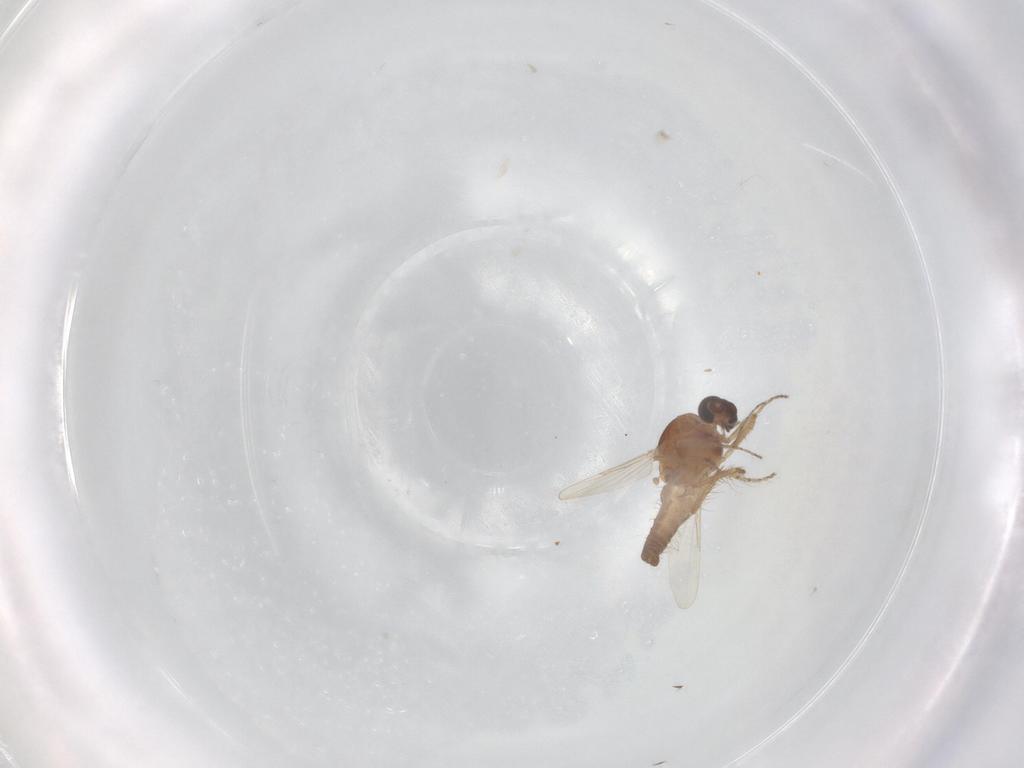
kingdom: Animalia
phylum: Arthropoda
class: Insecta
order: Diptera
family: Ceratopogonidae
